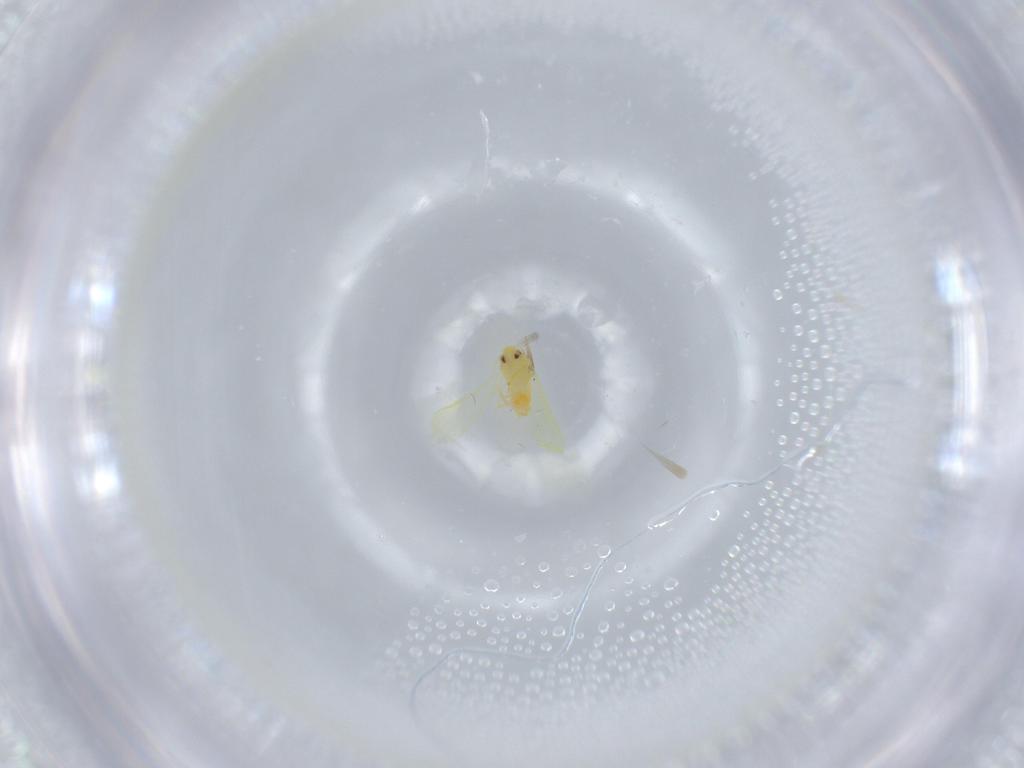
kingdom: Animalia
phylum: Arthropoda
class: Insecta
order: Hemiptera
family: Aleyrodidae
